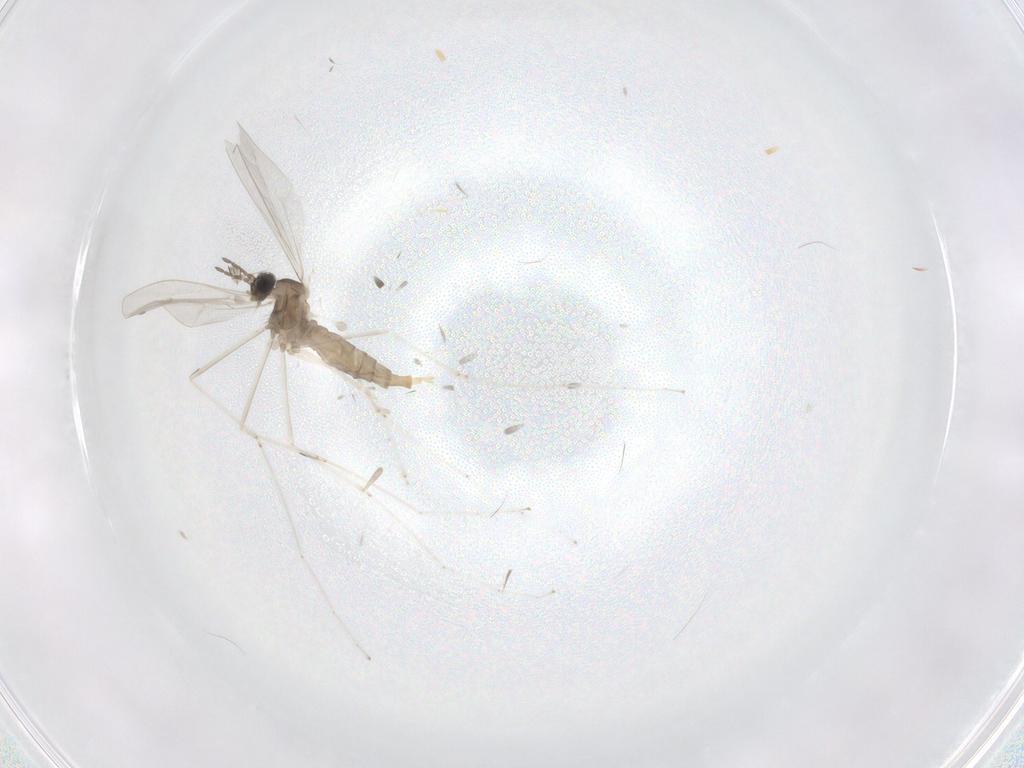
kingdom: Animalia
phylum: Arthropoda
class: Insecta
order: Diptera
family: Cecidomyiidae
